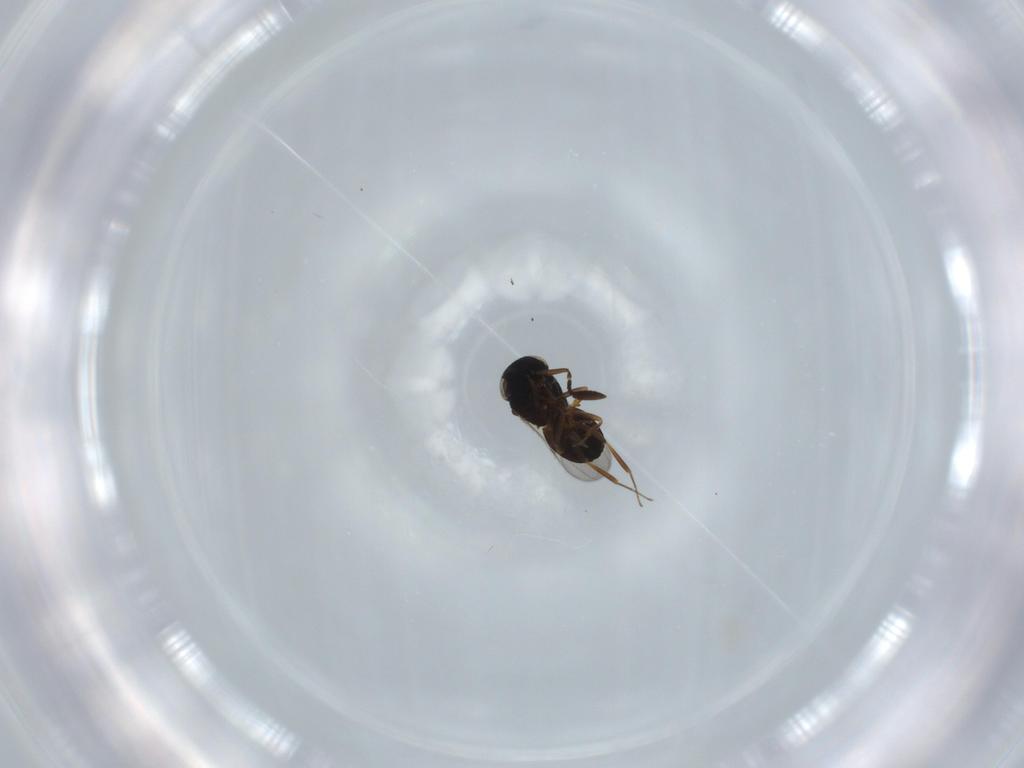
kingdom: Animalia
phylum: Arthropoda
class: Insecta
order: Hymenoptera
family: Scelionidae
